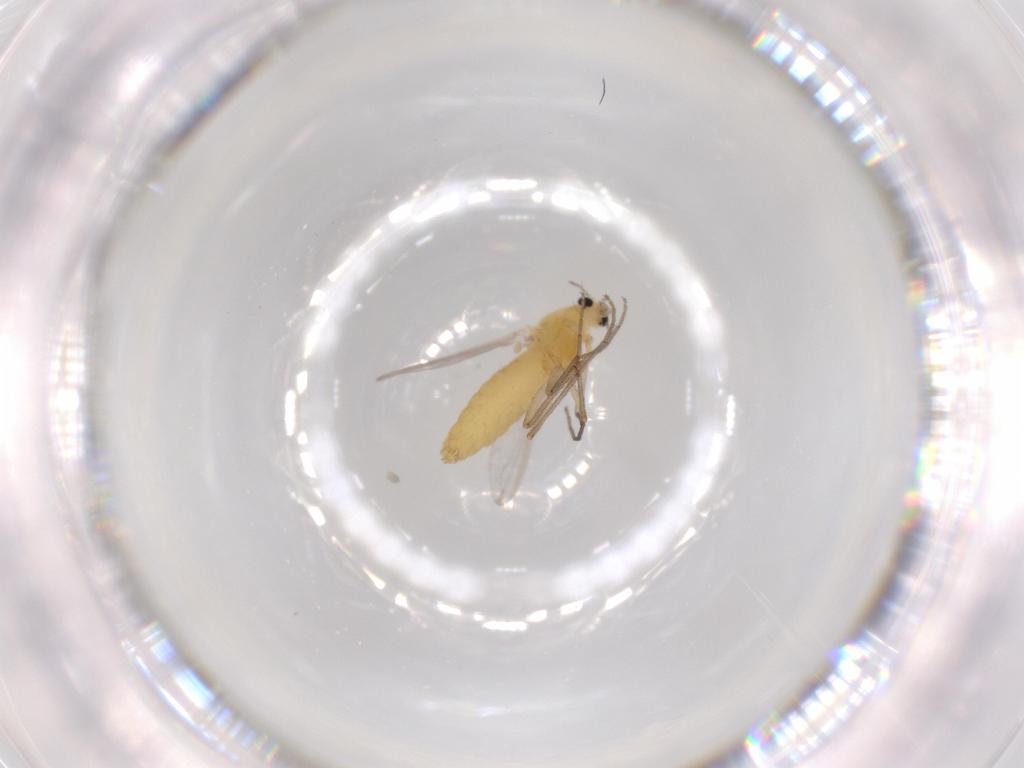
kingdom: Animalia
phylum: Arthropoda
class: Insecta
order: Diptera
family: Chironomidae
